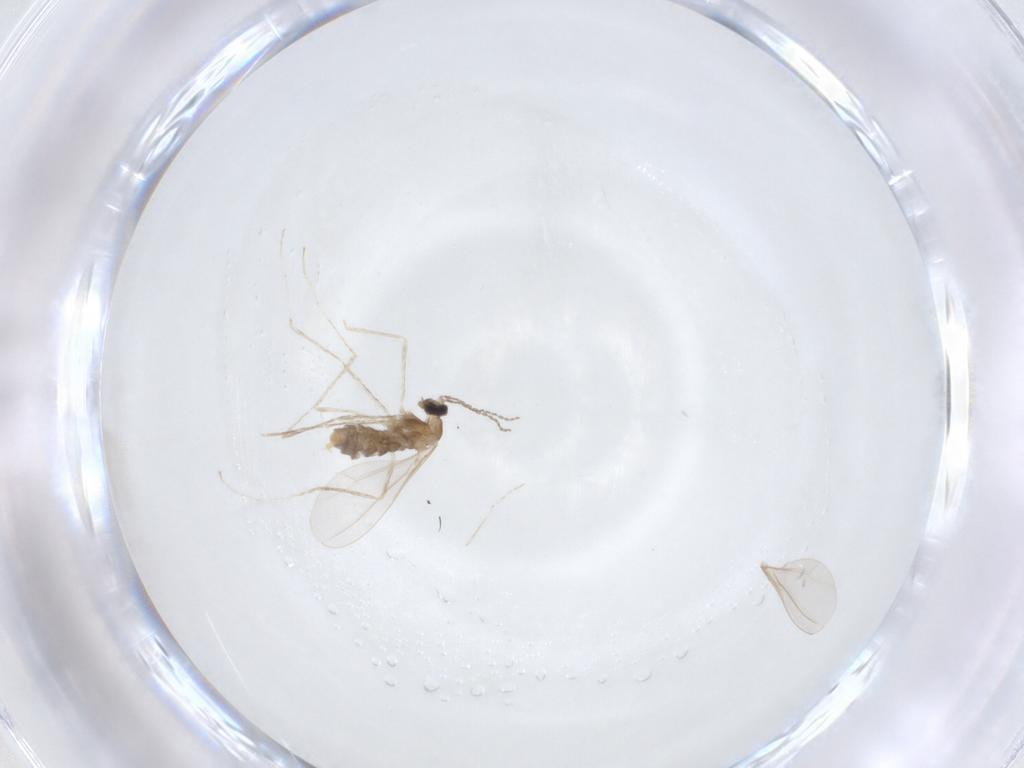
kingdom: Animalia
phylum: Arthropoda
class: Insecta
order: Diptera
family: Cecidomyiidae
